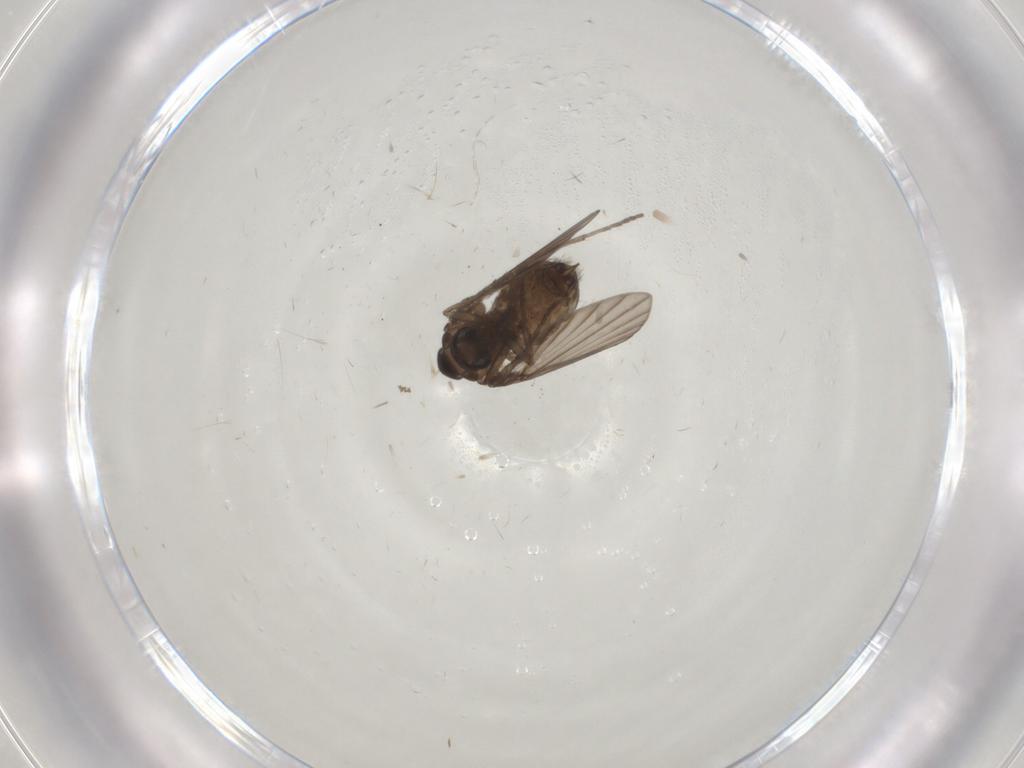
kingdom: Animalia
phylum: Arthropoda
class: Insecta
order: Diptera
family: Psychodidae
